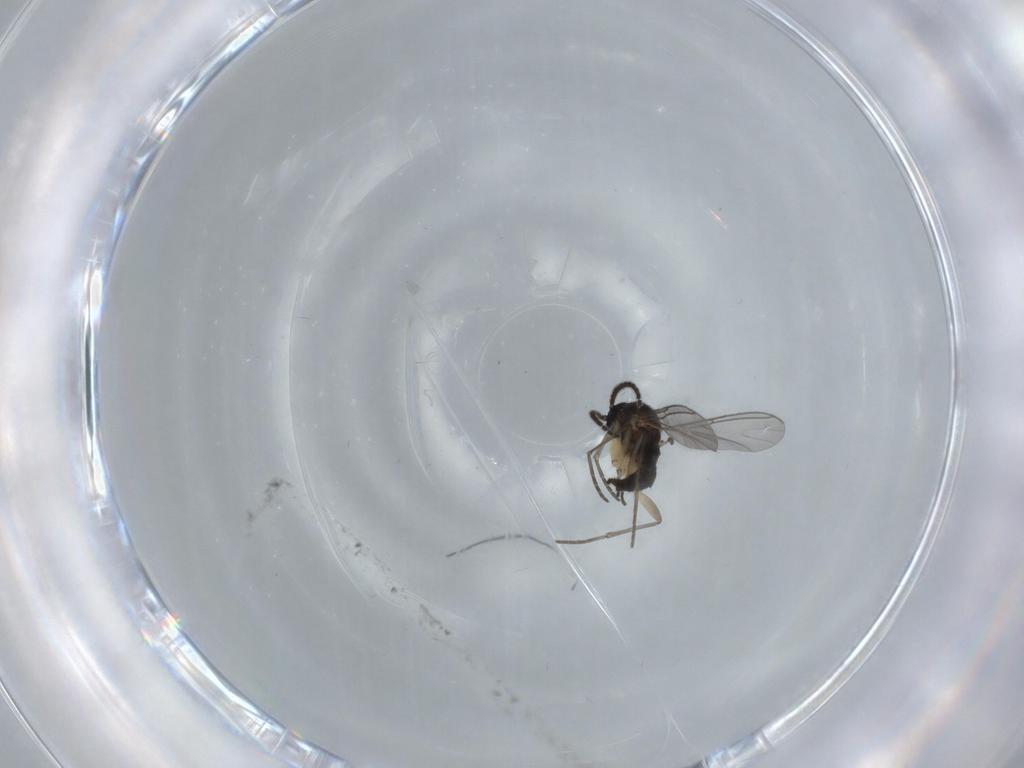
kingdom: Animalia
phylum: Arthropoda
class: Insecta
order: Diptera
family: Sciaridae
